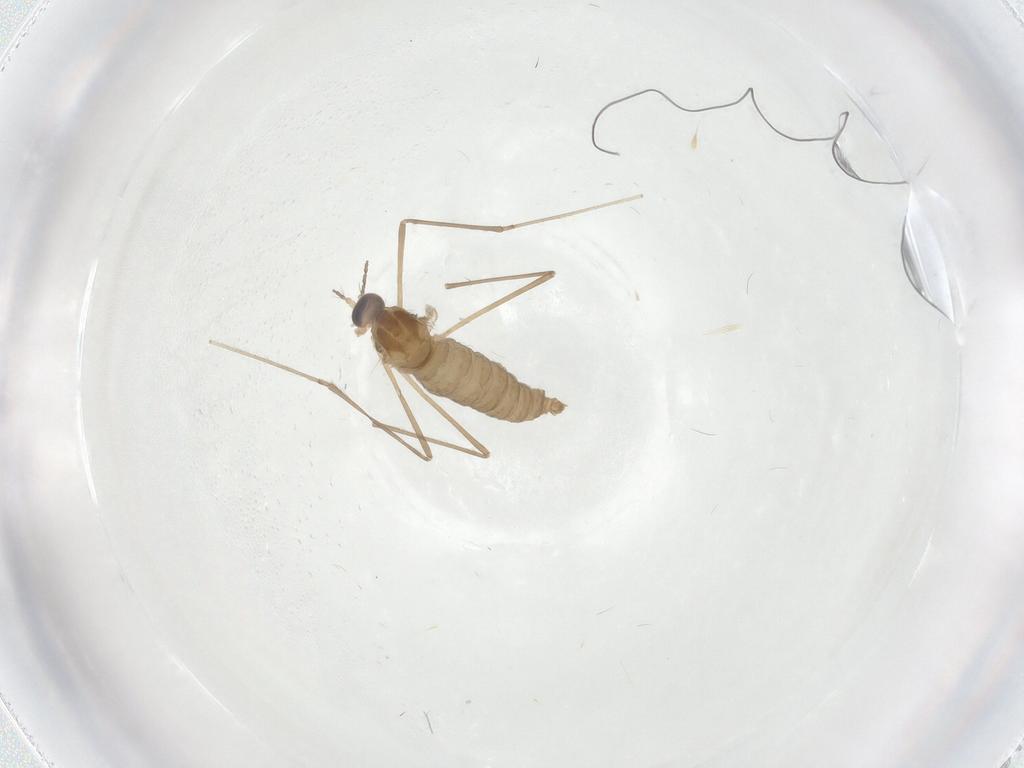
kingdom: Animalia
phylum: Arthropoda
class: Insecta
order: Diptera
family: Cecidomyiidae
